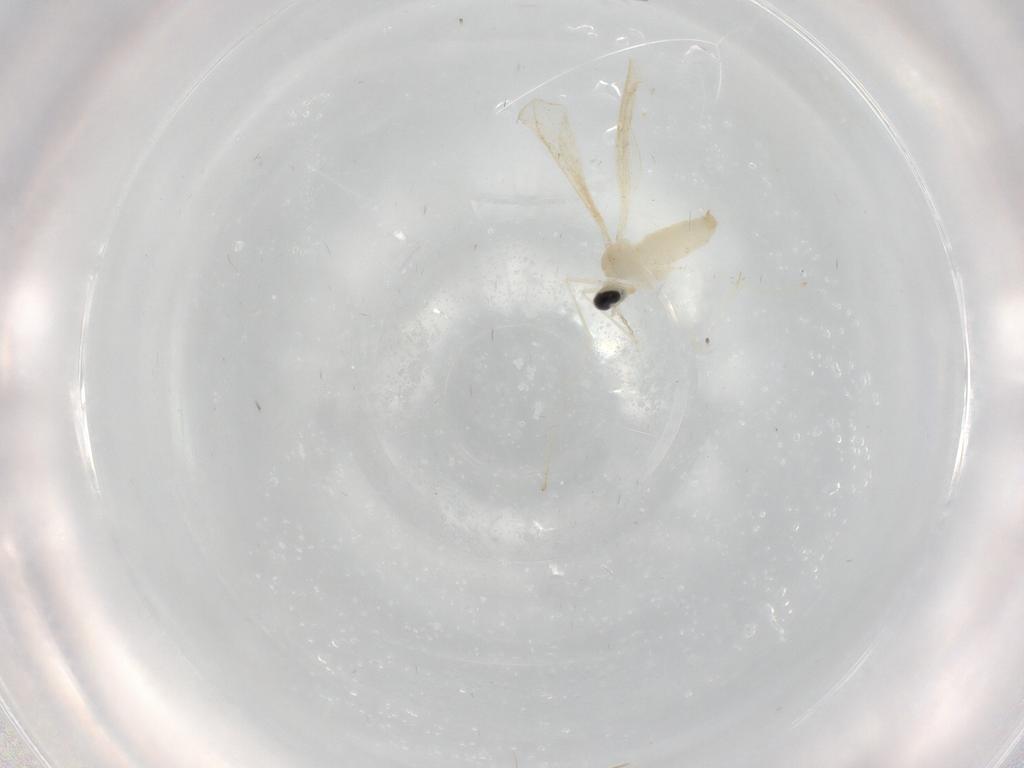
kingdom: Animalia
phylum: Arthropoda
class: Insecta
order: Diptera
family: Cecidomyiidae
